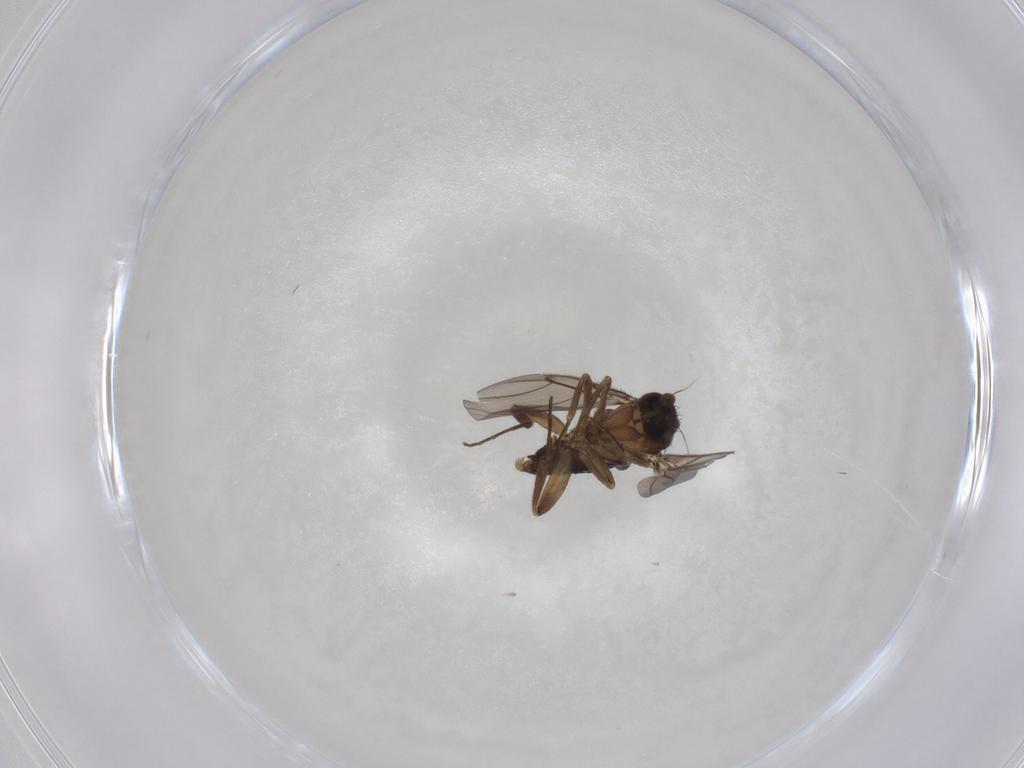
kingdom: Animalia
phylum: Arthropoda
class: Insecta
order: Diptera
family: Phoridae
